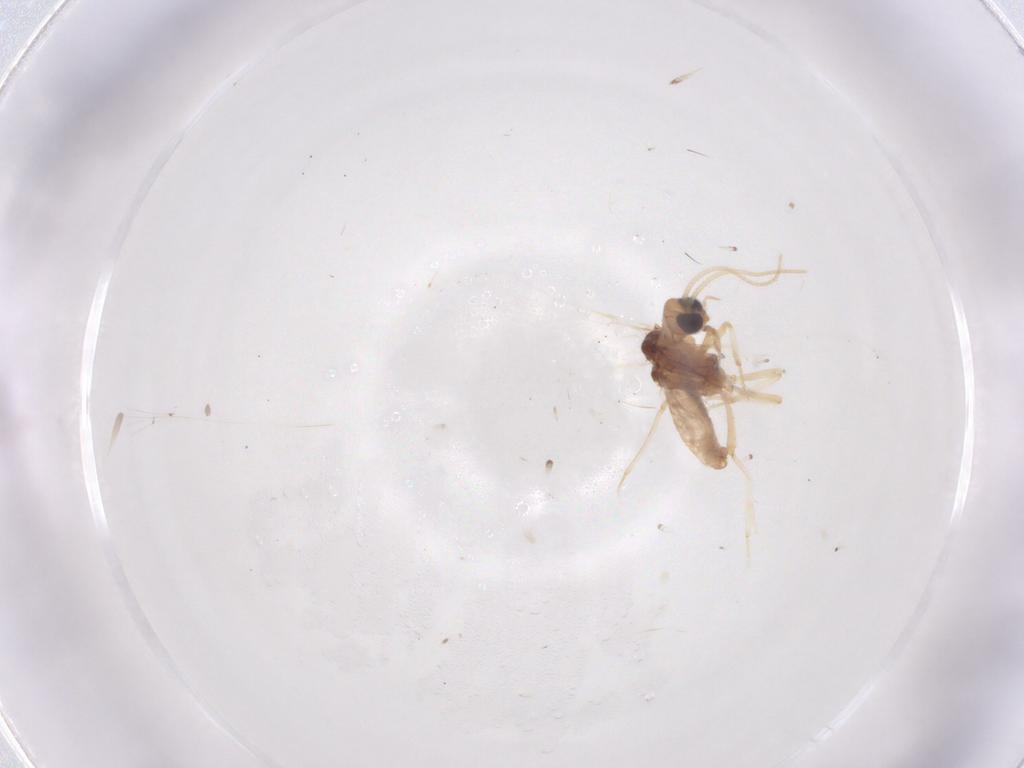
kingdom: Animalia
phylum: Arthropoda
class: Insecta
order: Neuroptera
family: Coniopterygidae
